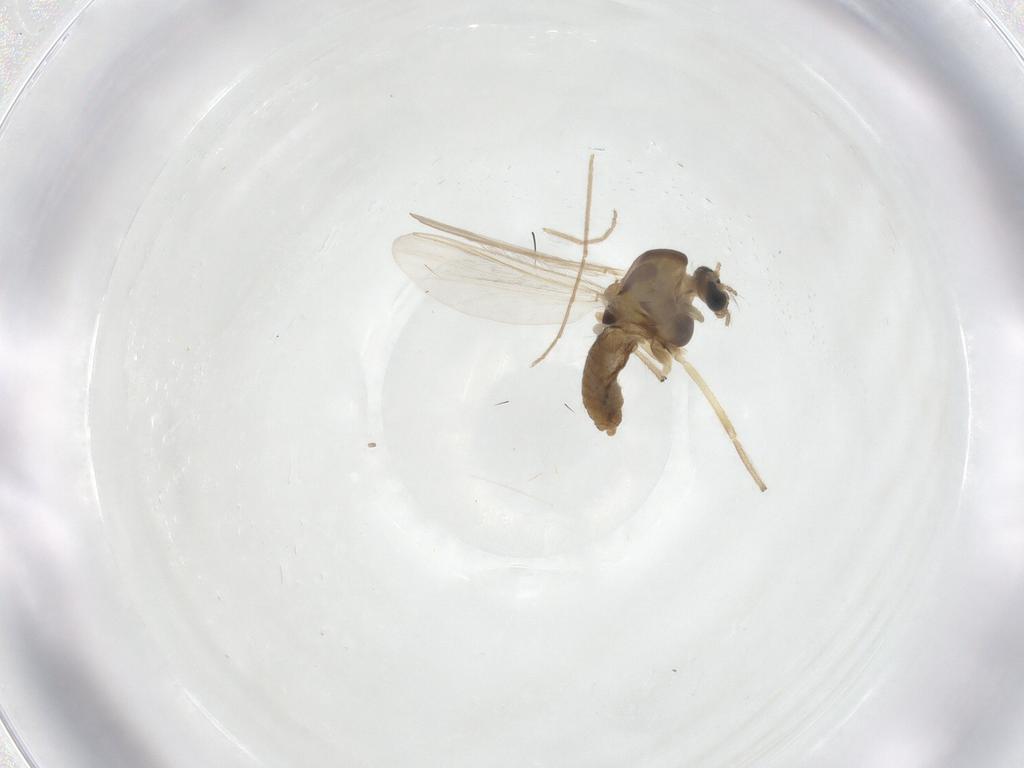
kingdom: Animalia
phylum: Arthropoda
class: Insecta
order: Diptera
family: Chironomidae
